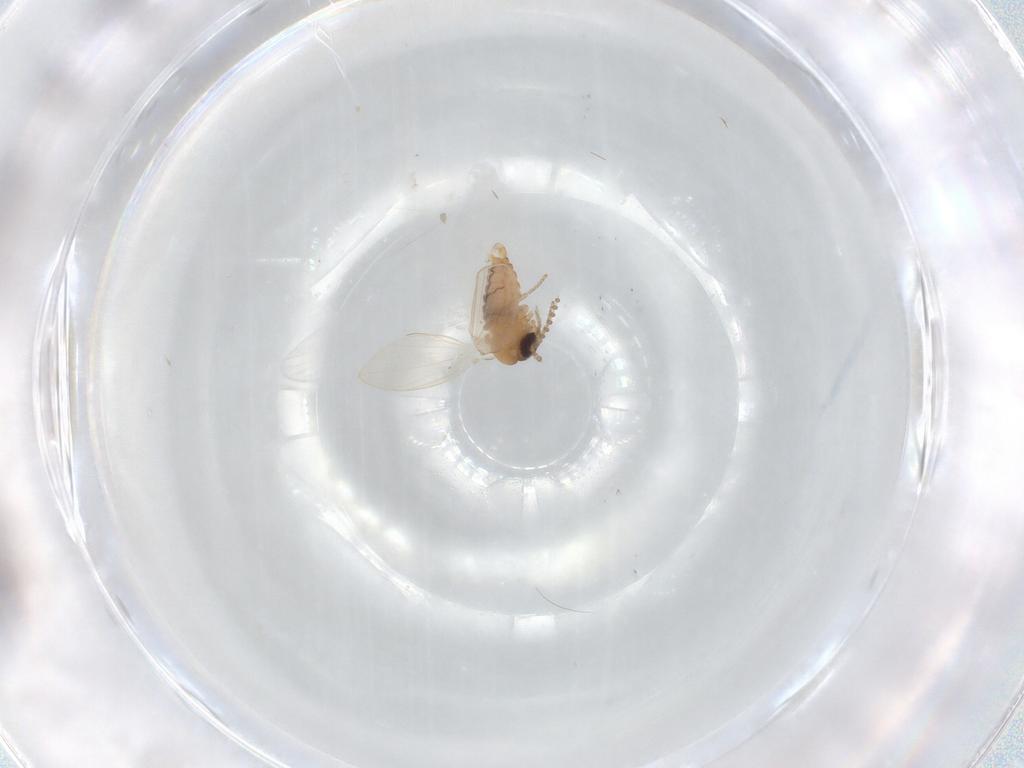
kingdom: Animalia
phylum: Arthropoda
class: Insecta
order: Diptera
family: Psychodidae
